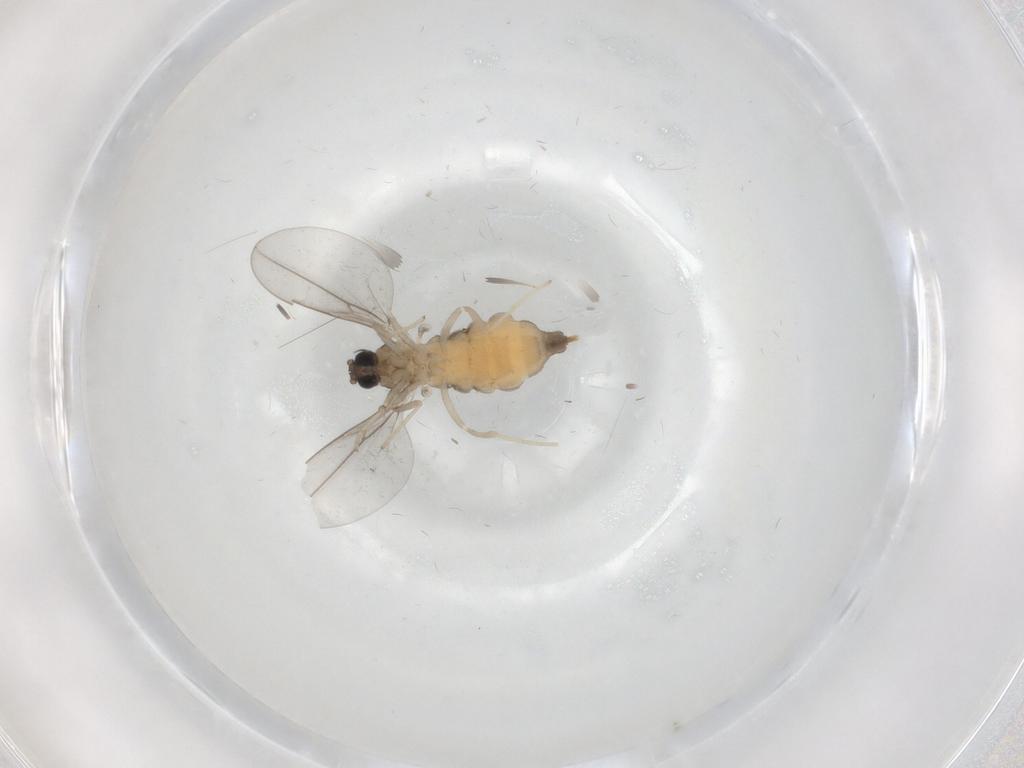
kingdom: Animalia
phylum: Arthropoda
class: Insecta
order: Diptera
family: Cecidomyiidae
